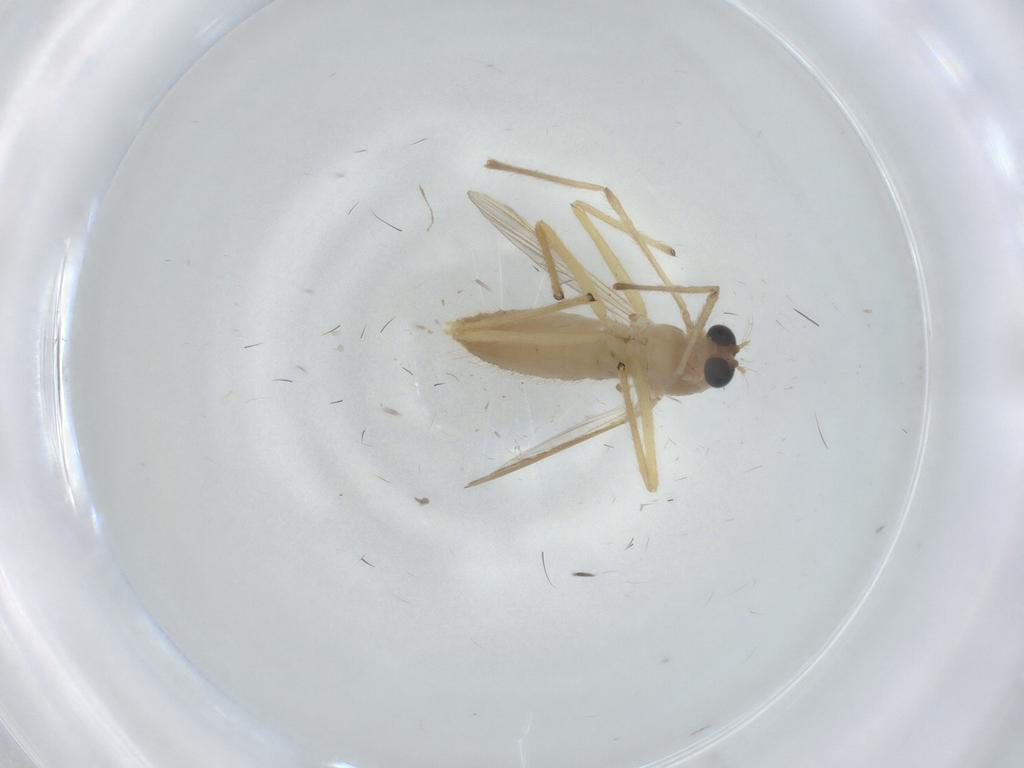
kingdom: Animalia
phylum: Arthropoda
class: Insecta
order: Diptera
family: Chironomidae
